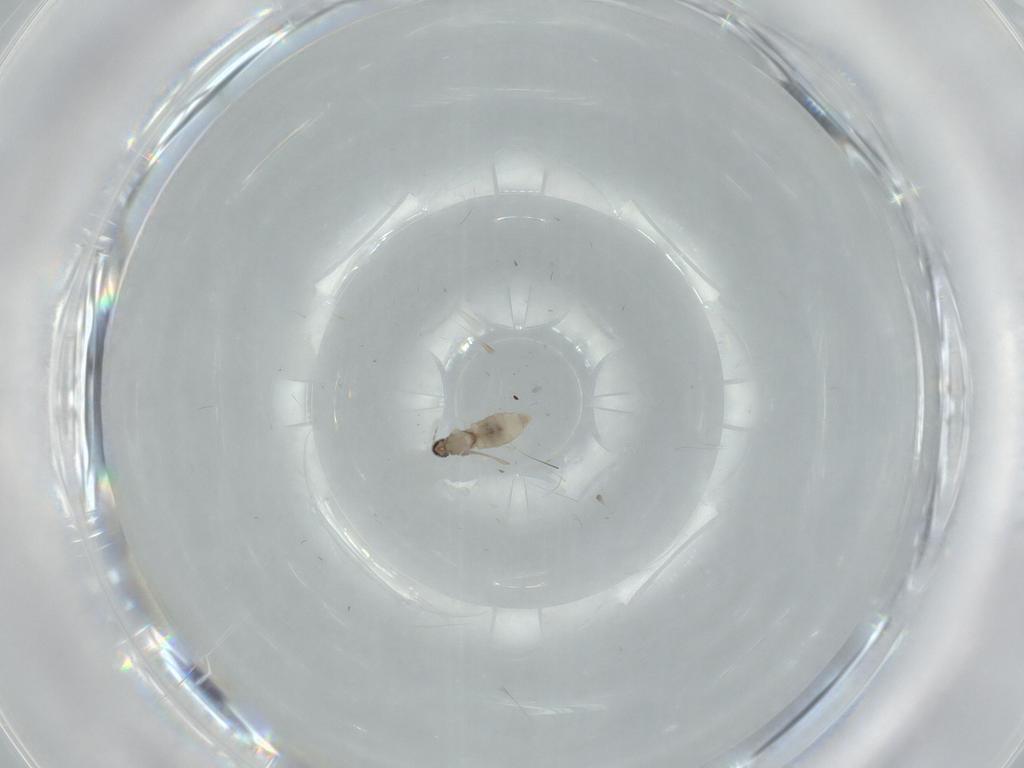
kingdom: Animalia
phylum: Arthropoda
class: Insecta
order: Diptera
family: Cecidomyiidae
